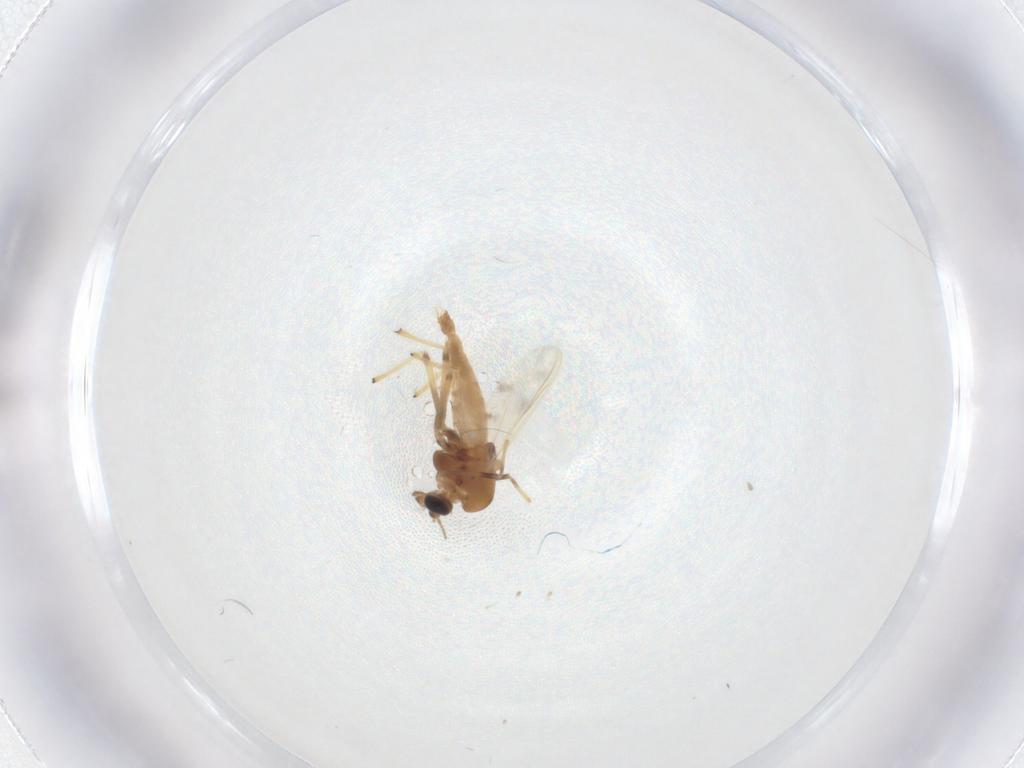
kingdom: Animalia
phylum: Arthropoda
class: Insecta
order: Diptera
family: Chironomidae
